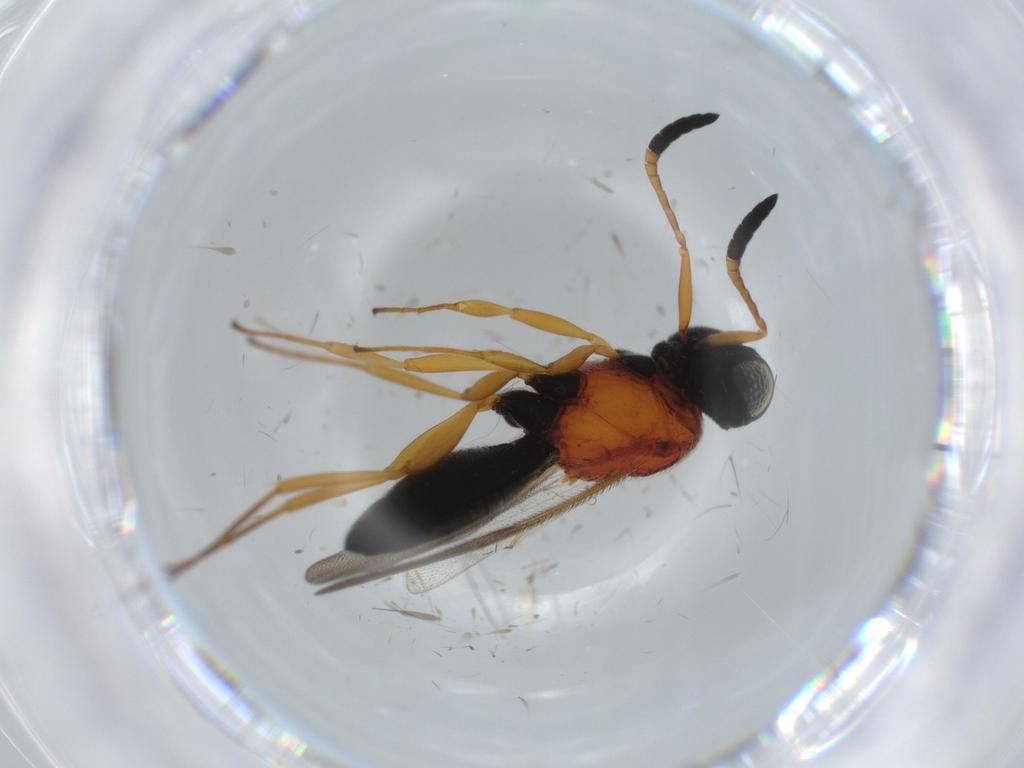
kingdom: Animalia
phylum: Arthropoda
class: Insecta
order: Hymenoptera
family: Scelionidae
